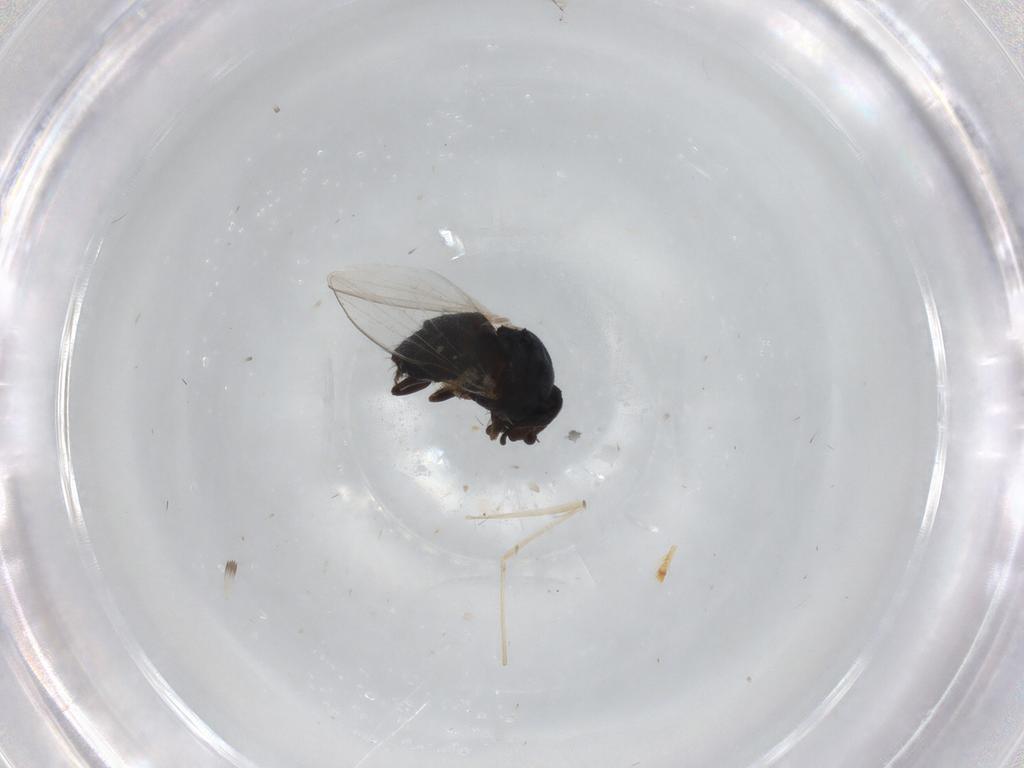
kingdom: Animalia
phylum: Arthropoda
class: Insecta
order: Diptera
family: Milichiidae
